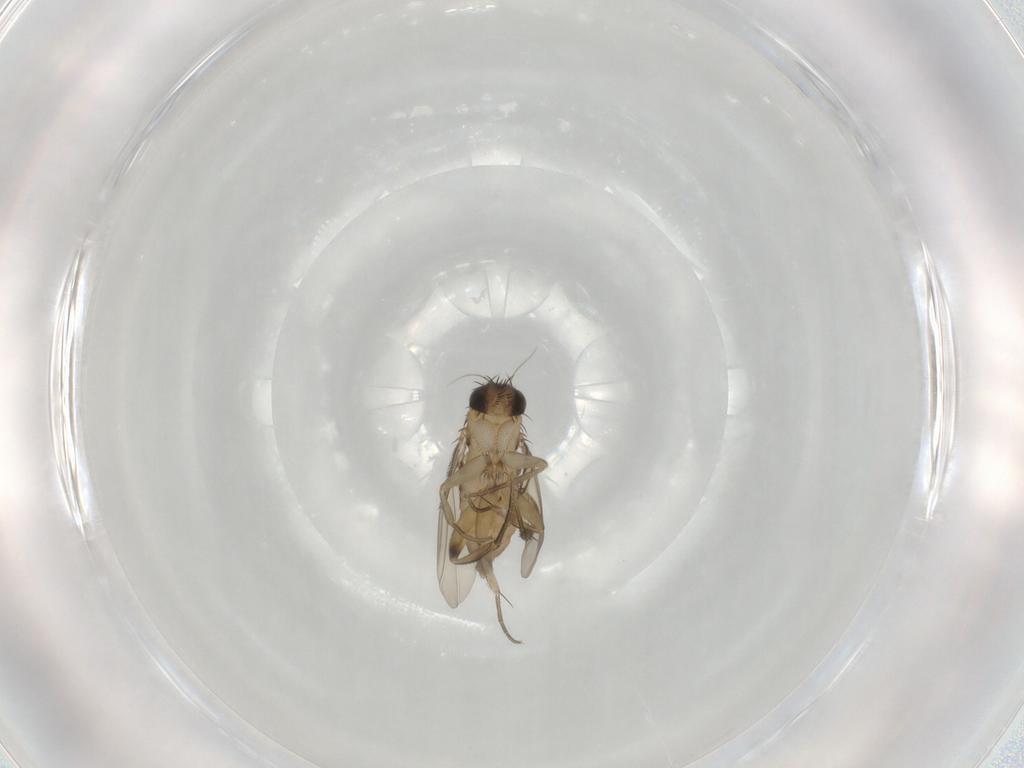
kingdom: Animalia
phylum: Arthropoda
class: Insecta
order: Diptera
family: Phoridae
